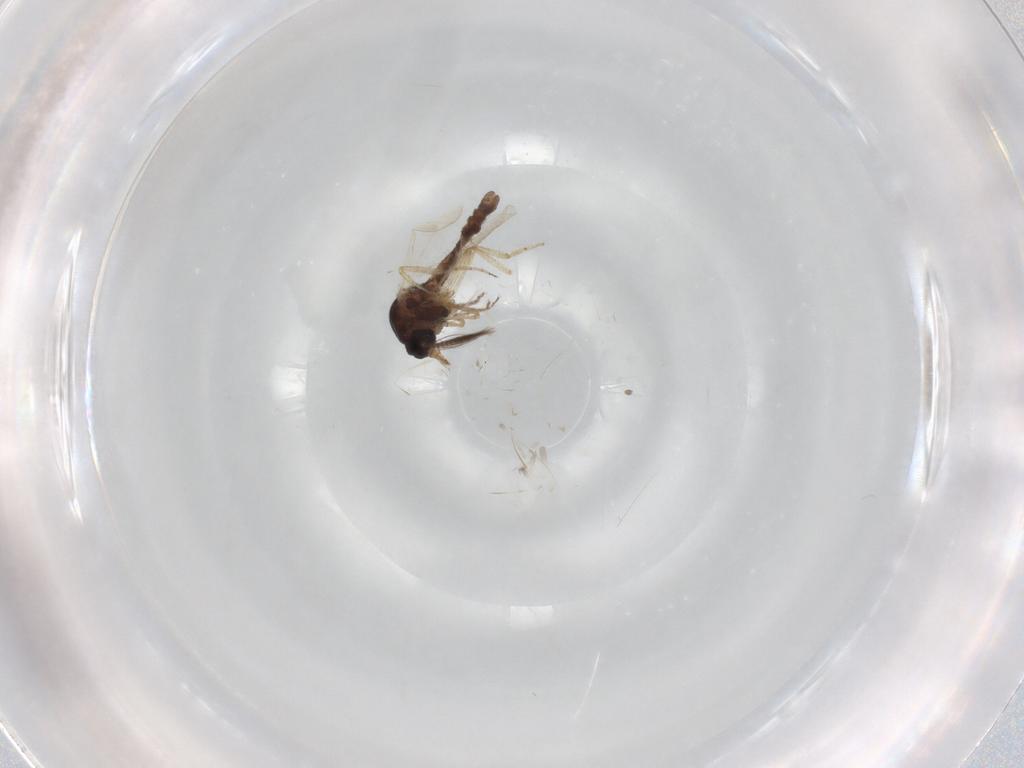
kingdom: Animalia
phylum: Arthropoda
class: Insecta
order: Diptera
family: Ceratopogonidae
